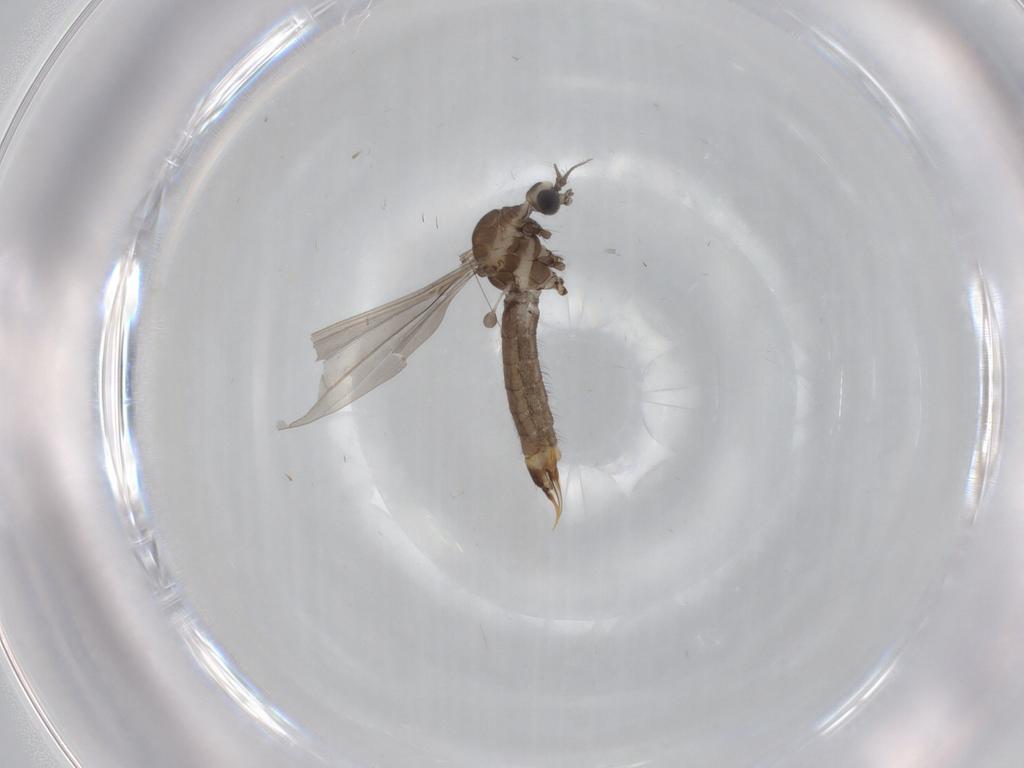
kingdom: Animalia
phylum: Arthropoda
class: Insecta
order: Diptera
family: Limoniidae
